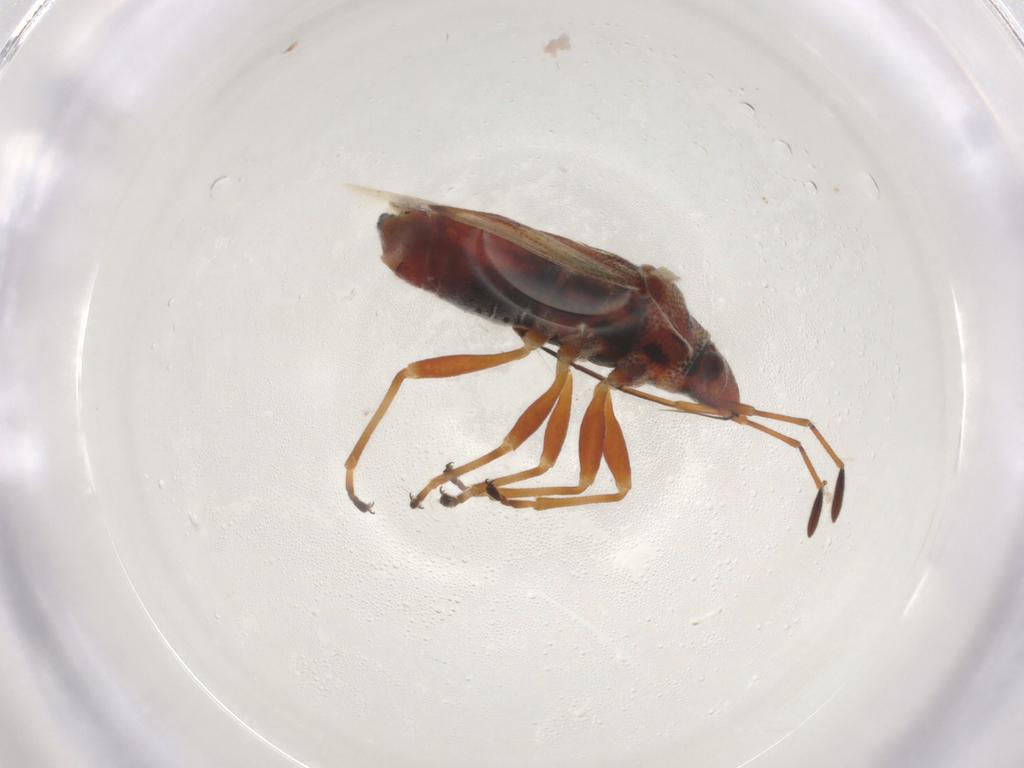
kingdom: Animalia
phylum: Arthropoda
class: Insecta
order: Hemiptera
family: Lygaeidae
